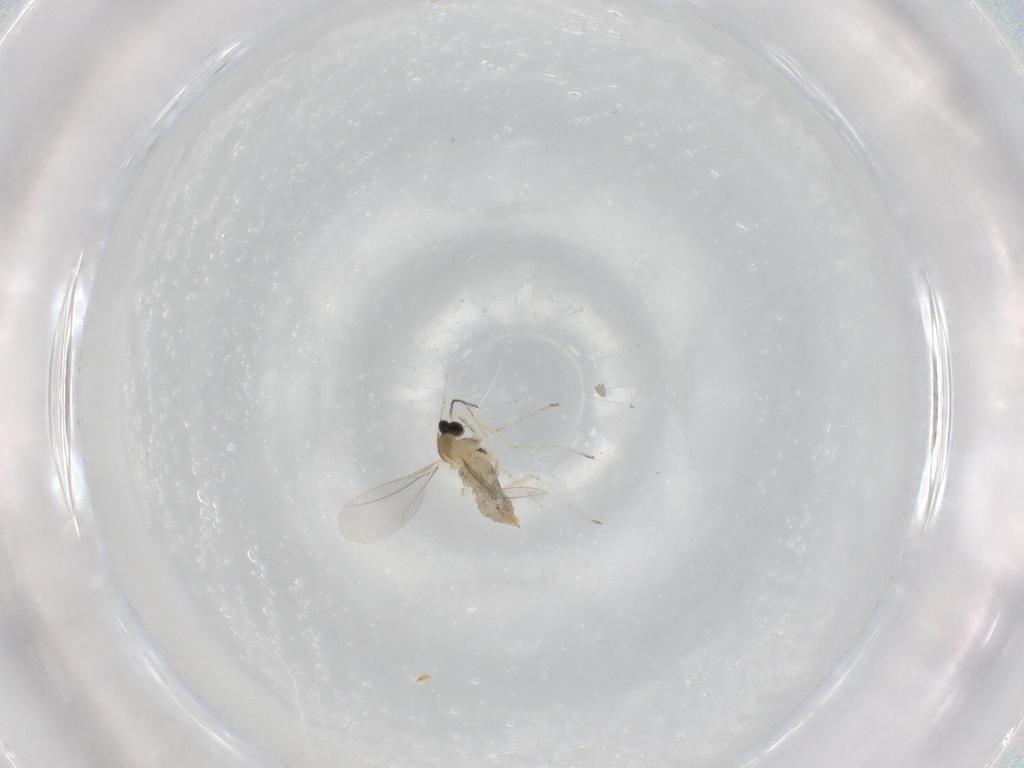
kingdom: Animalia
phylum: Arthropoda
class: Insecta
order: Diptera
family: Cecidomyiidae
